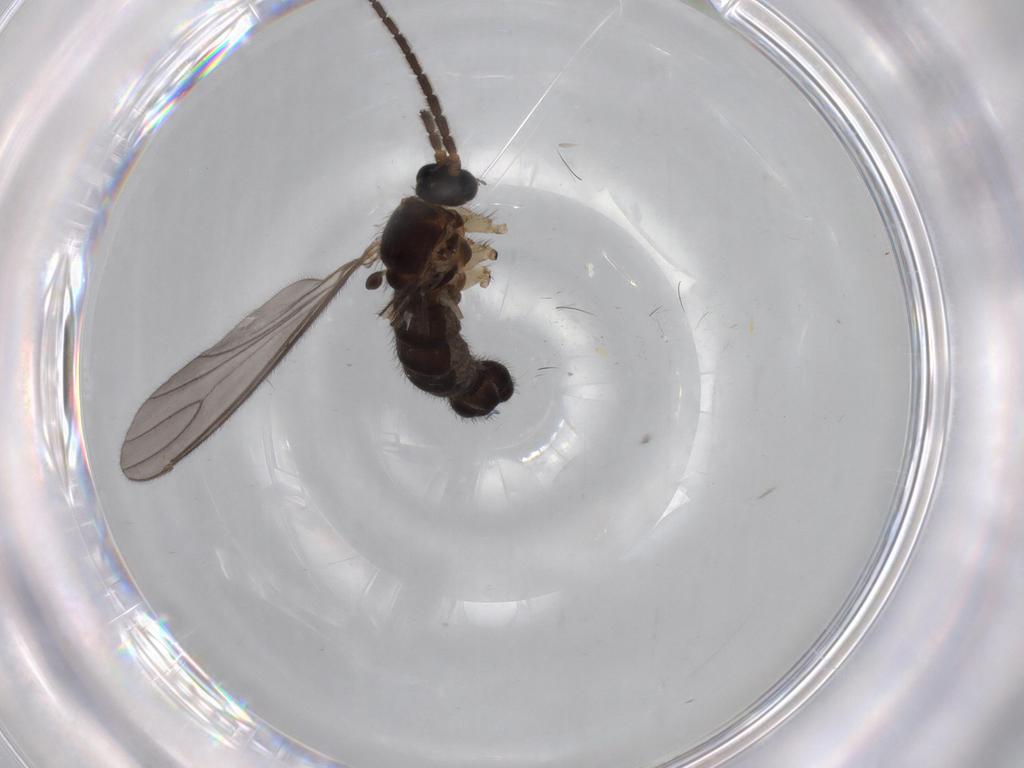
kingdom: Animalia
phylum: Arthropoda
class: Insecta
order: Diptera
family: Sciaridae
